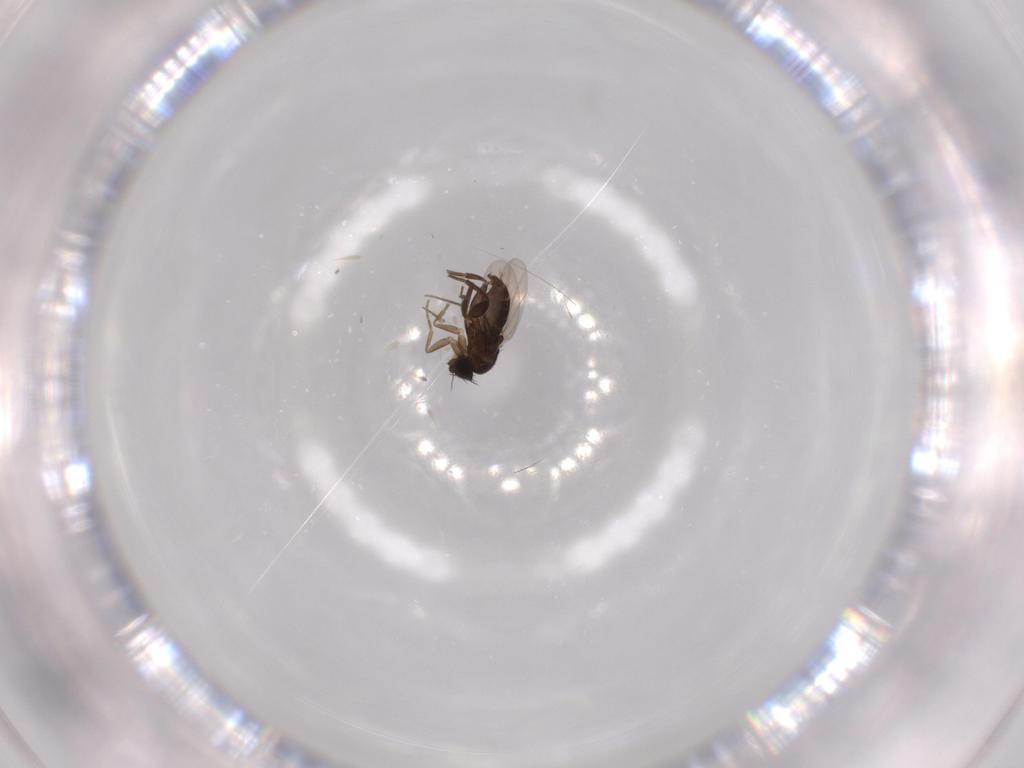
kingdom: Animalia
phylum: Arthropoda
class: Insecta
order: Diptera
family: Phoridae
